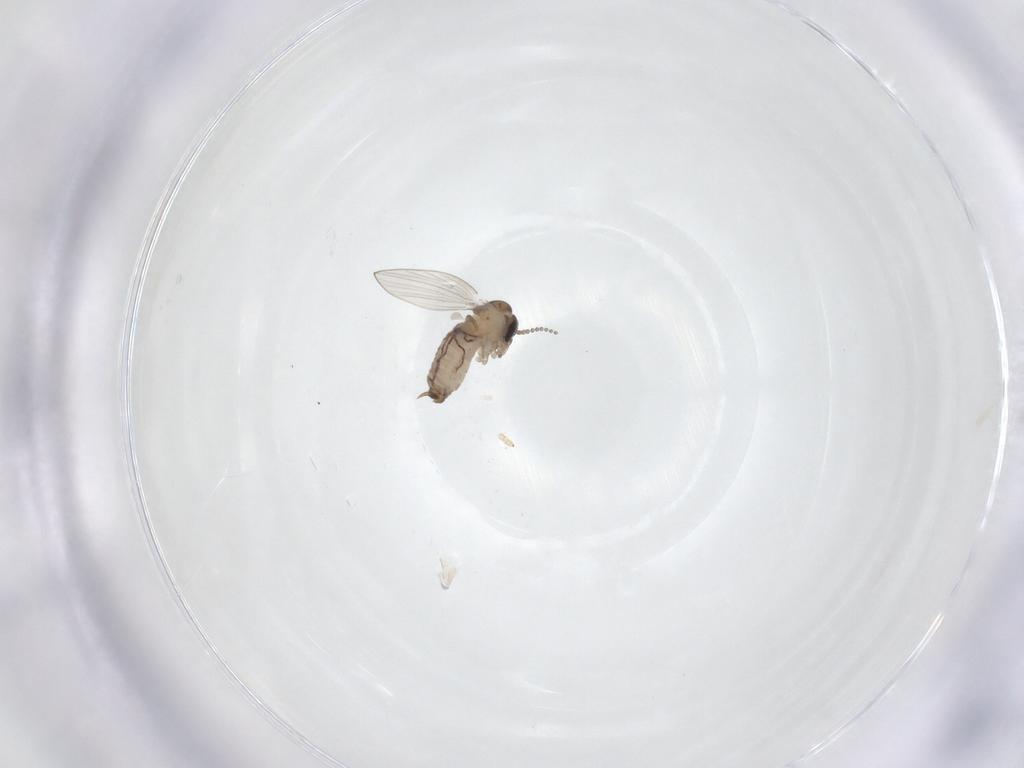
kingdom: Animalia
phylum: Arthropoda
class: Insecta
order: Diptera
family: Psychodidae
